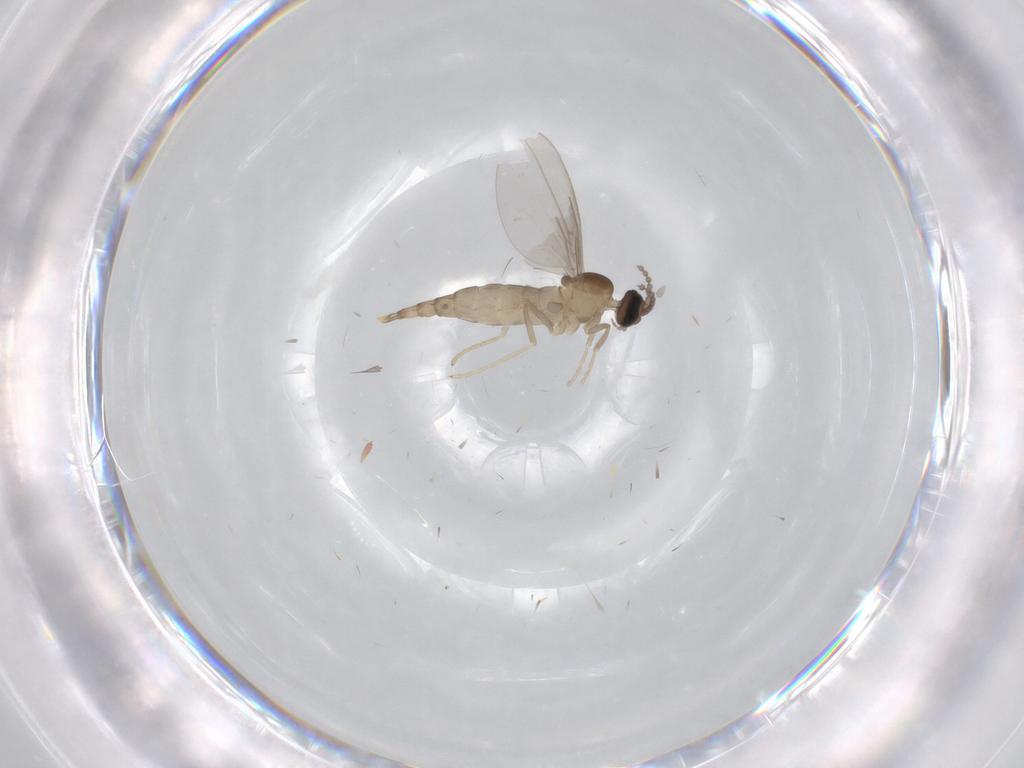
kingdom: Animalia
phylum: Arthropoda
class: Insecta
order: Diptera
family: Cecidomyiidae
